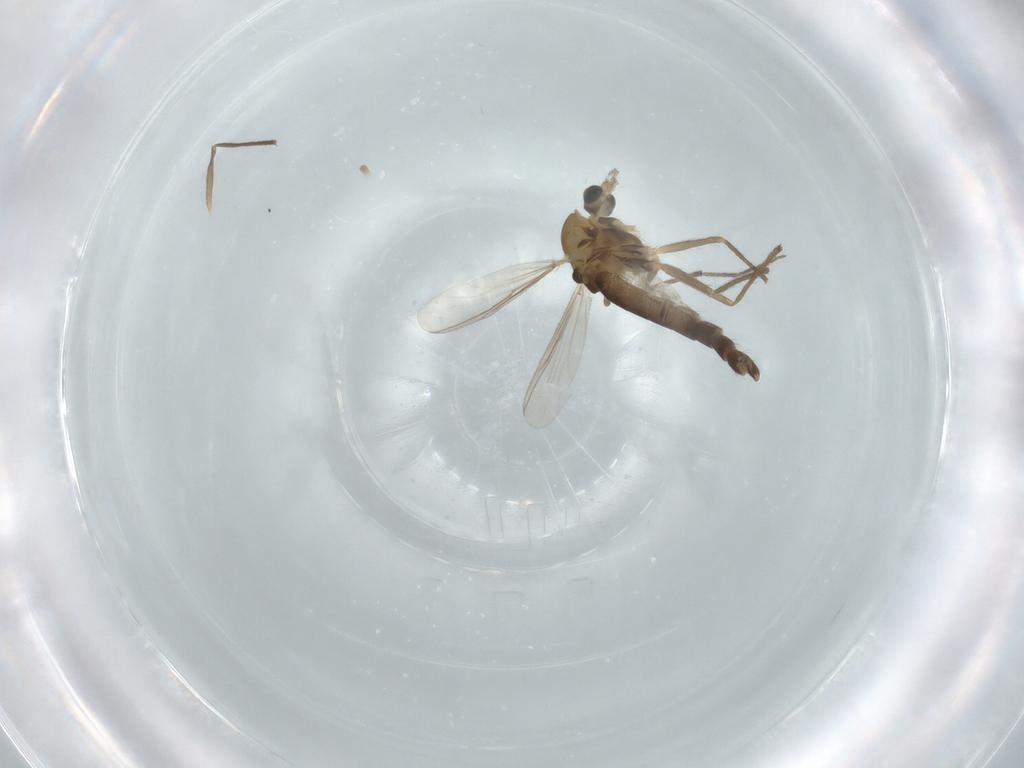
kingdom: Animalia
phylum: Arthropoda
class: Insecta
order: Diptera
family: Chironomidae
